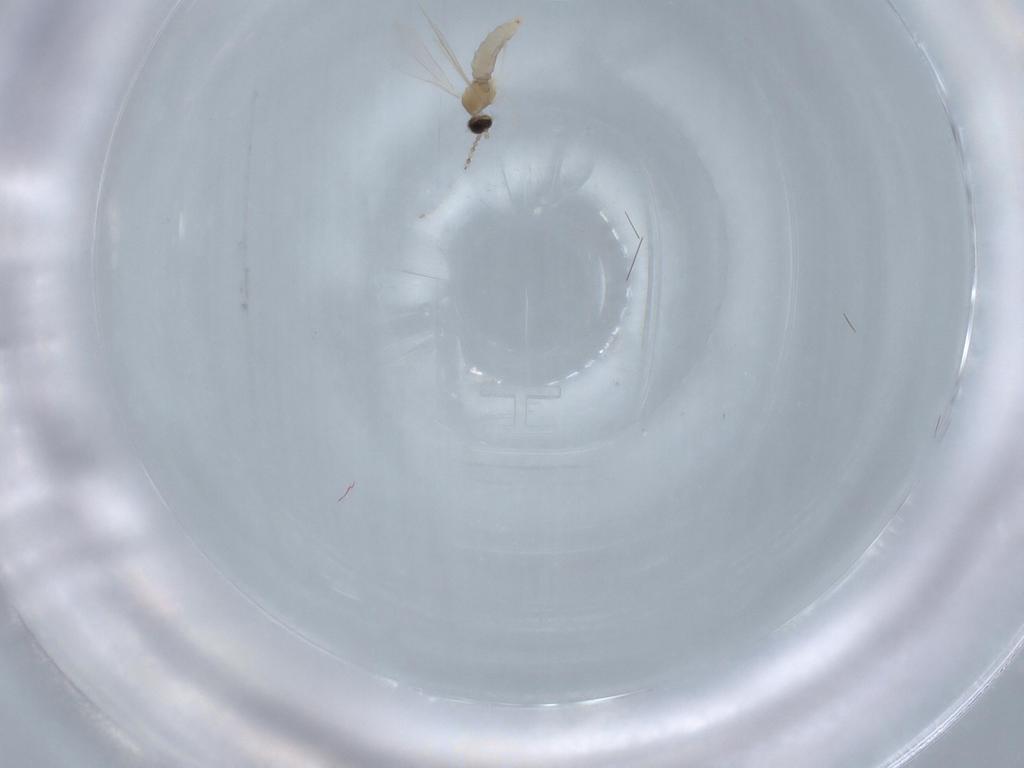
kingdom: Animalia
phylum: Arthropoda
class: Insecta
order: Diptera
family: Cecidomyiidae
